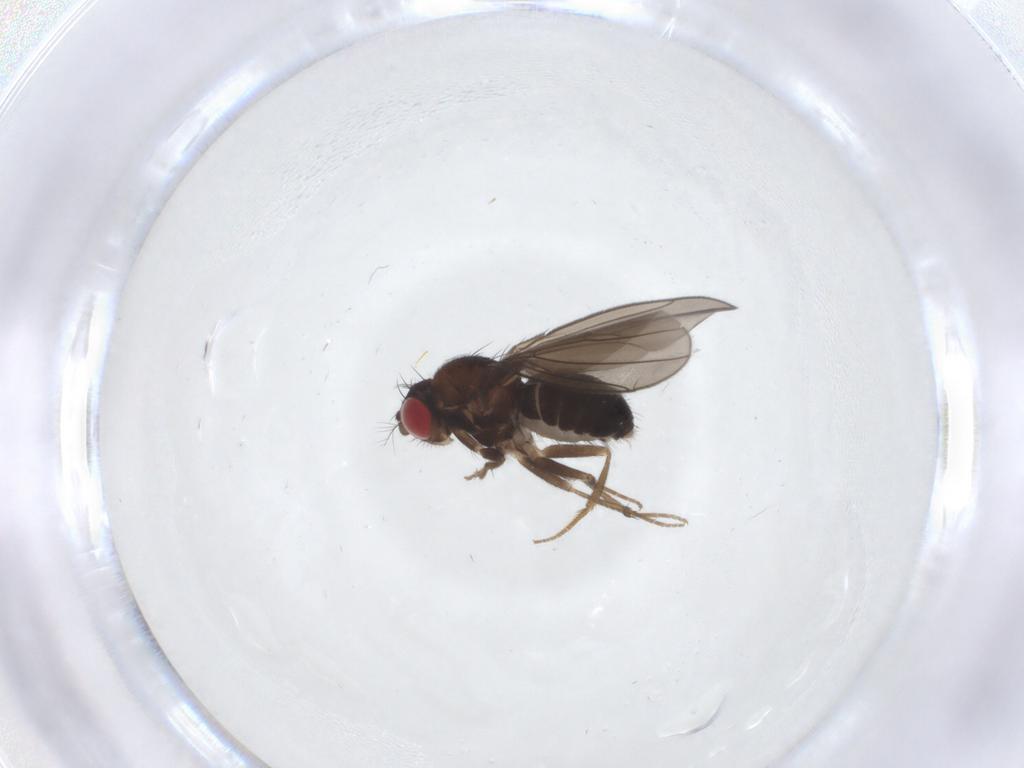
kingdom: Animalia
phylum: Arthropoda
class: Insecta
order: Diptera
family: Drosophilidae
